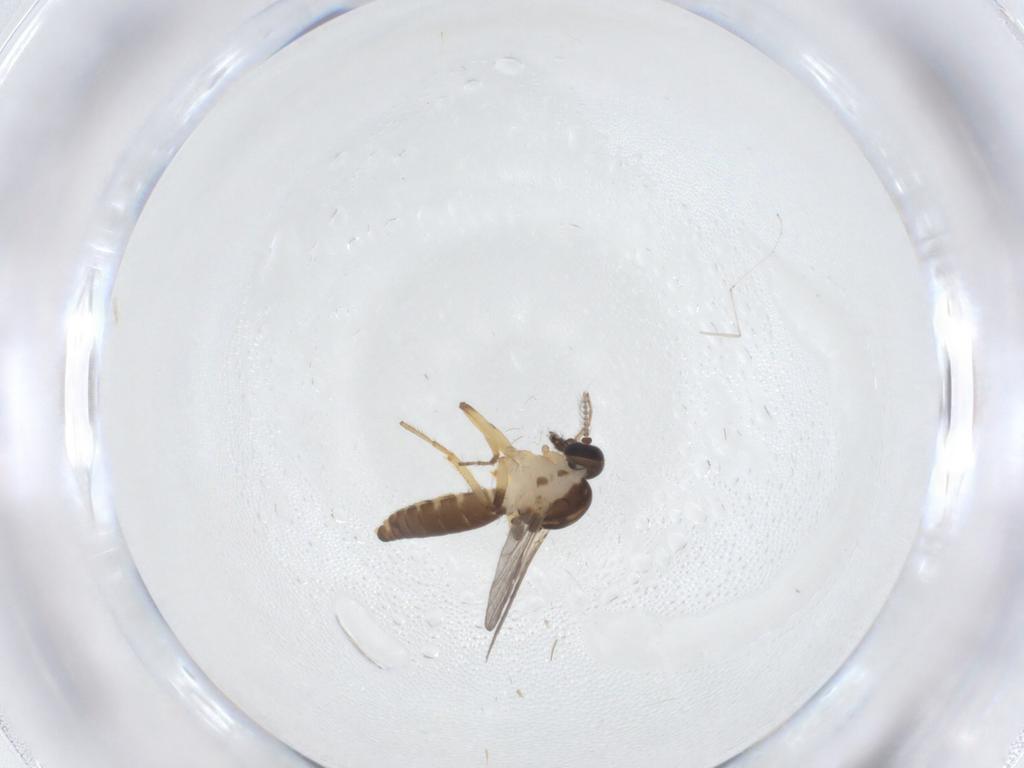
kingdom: Animalia
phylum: Arthropoda
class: Insecta
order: Diptera
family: Ceratopogonidae
